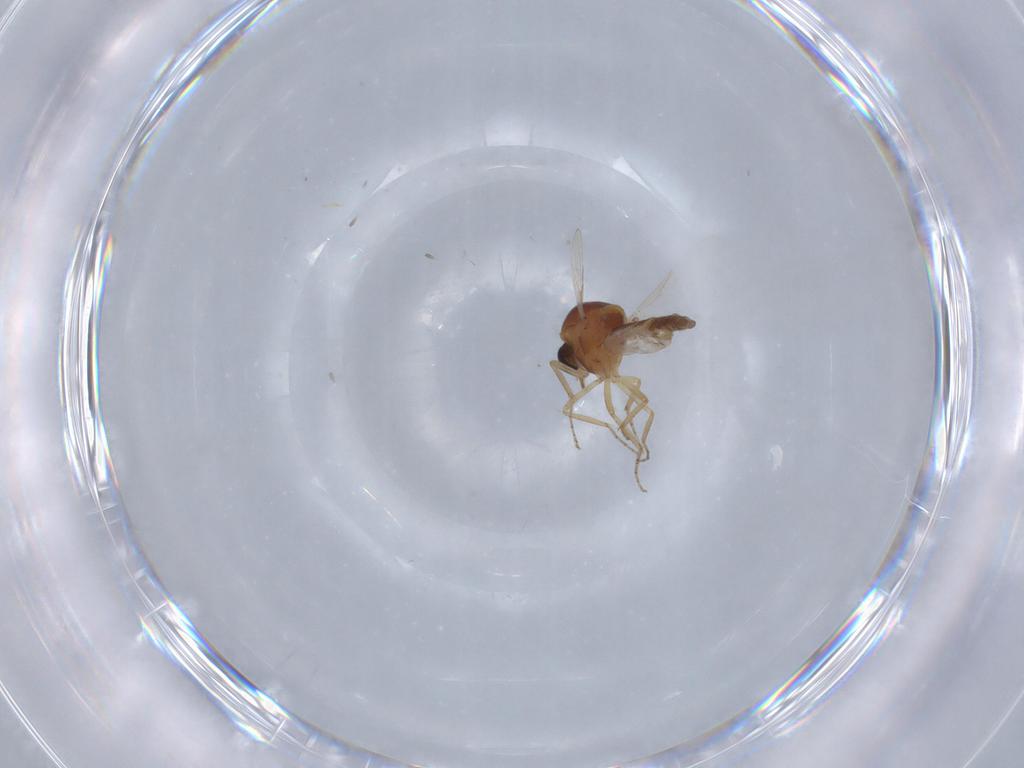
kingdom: Animalia
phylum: Arthropoda
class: Insecta
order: Diptera
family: Ceratopogonidae
